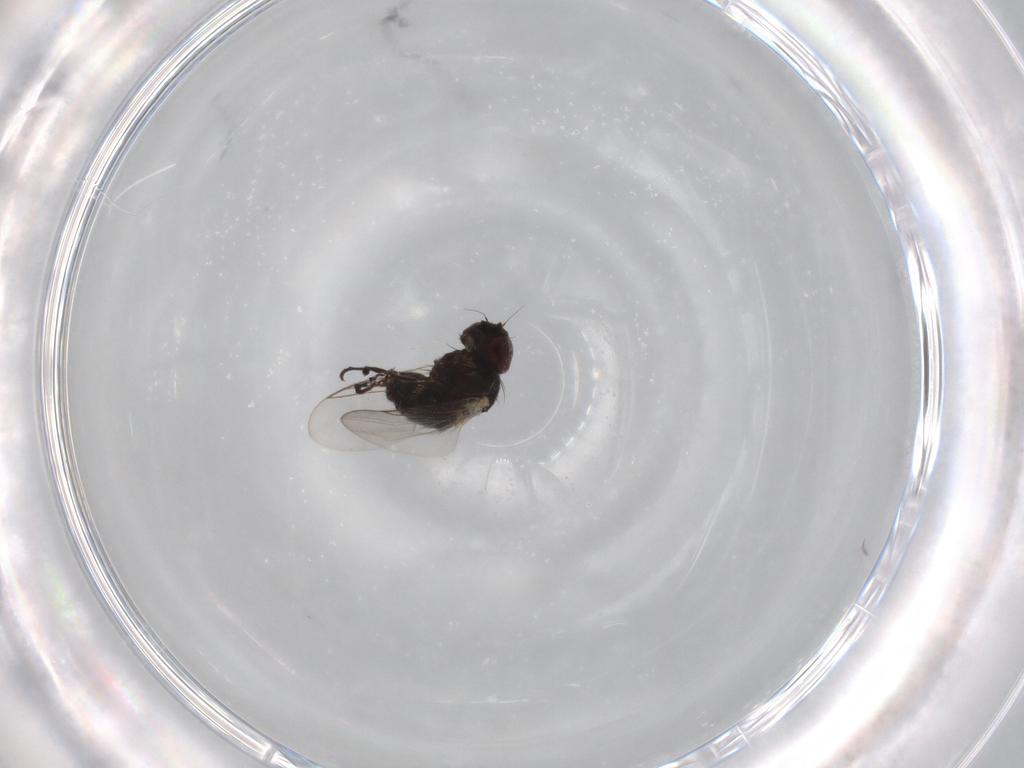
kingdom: Animalia
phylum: Arthropoda
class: Insecta
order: Diptera
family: Agromyzidae
